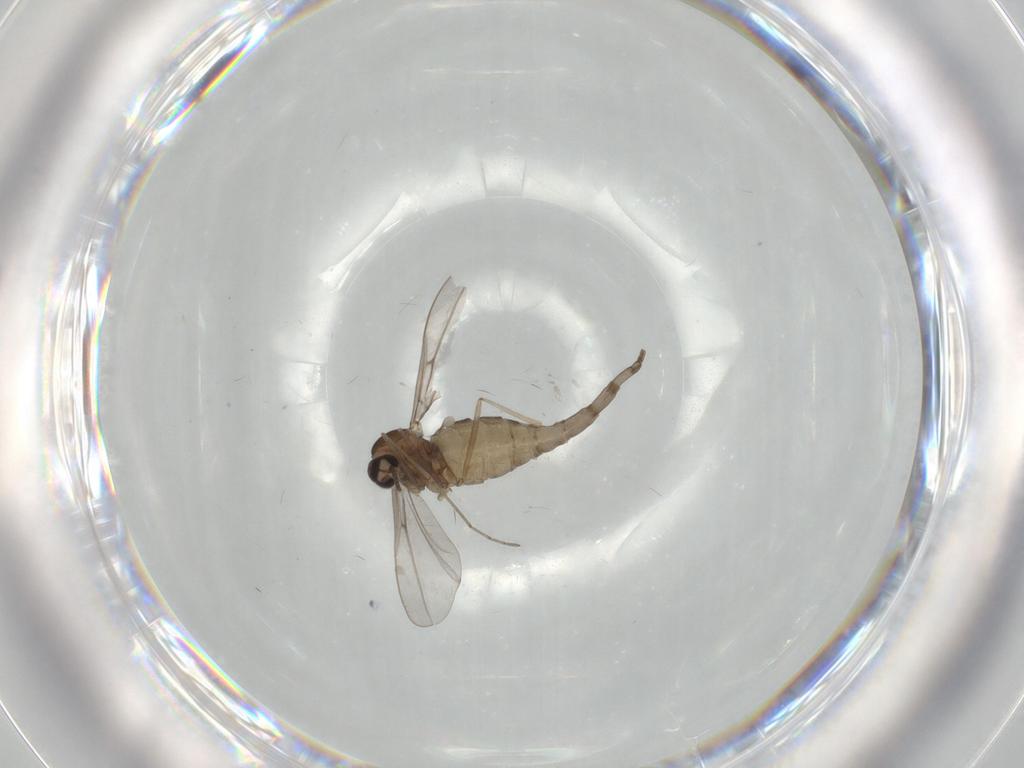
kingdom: Animalia
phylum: Arthropoda
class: Insecta
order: Diptera
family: Cecidomyiidae
